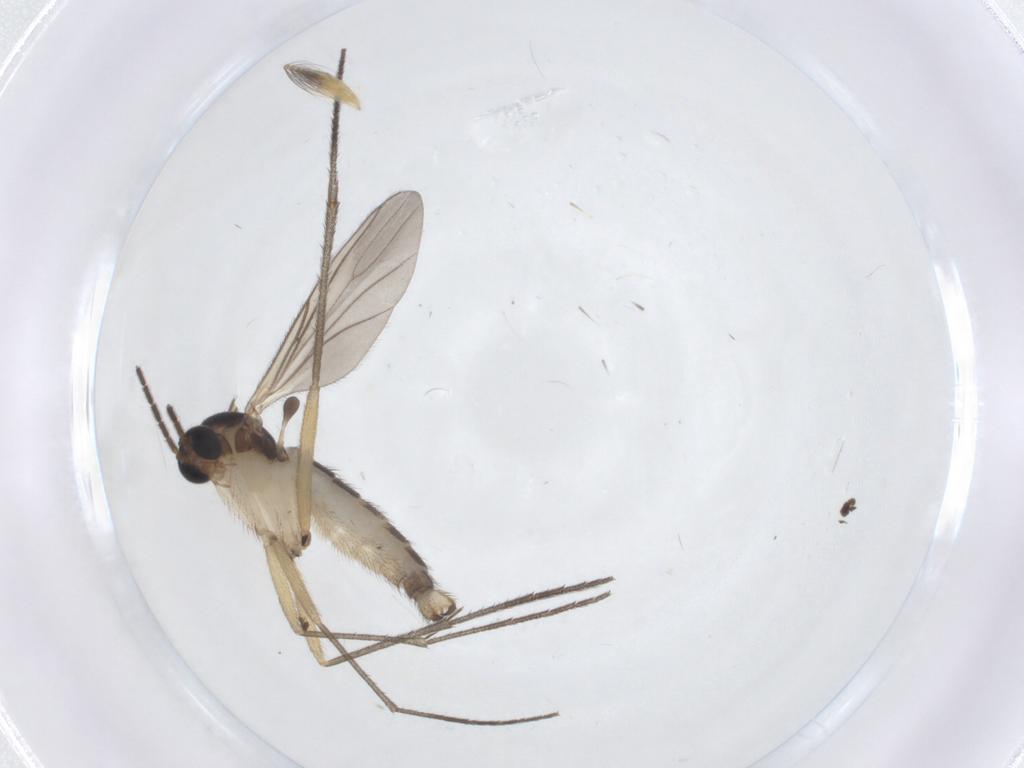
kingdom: Animalia
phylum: Arthropoda
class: Insecta
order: Diptera
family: Sciaridae
